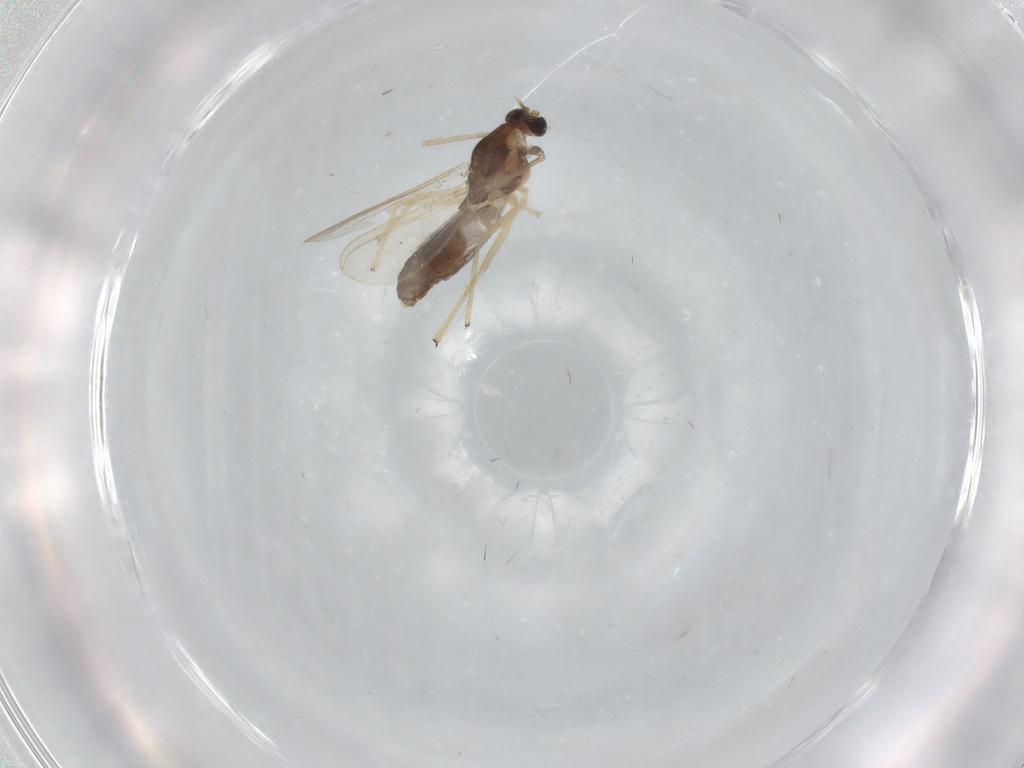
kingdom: Animalia
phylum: Arthropoda
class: Insecta
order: Diptera
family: Chironomidae
